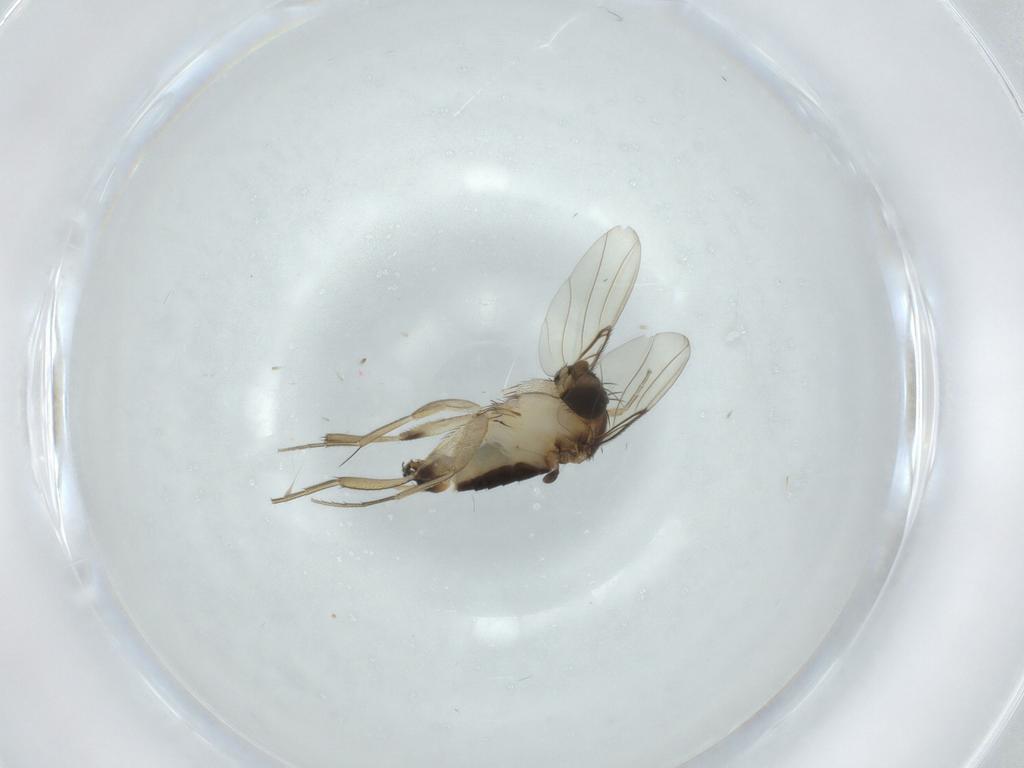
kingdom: Animalia
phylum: Arthropoda
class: Insecta
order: Diptera
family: Phoridae
